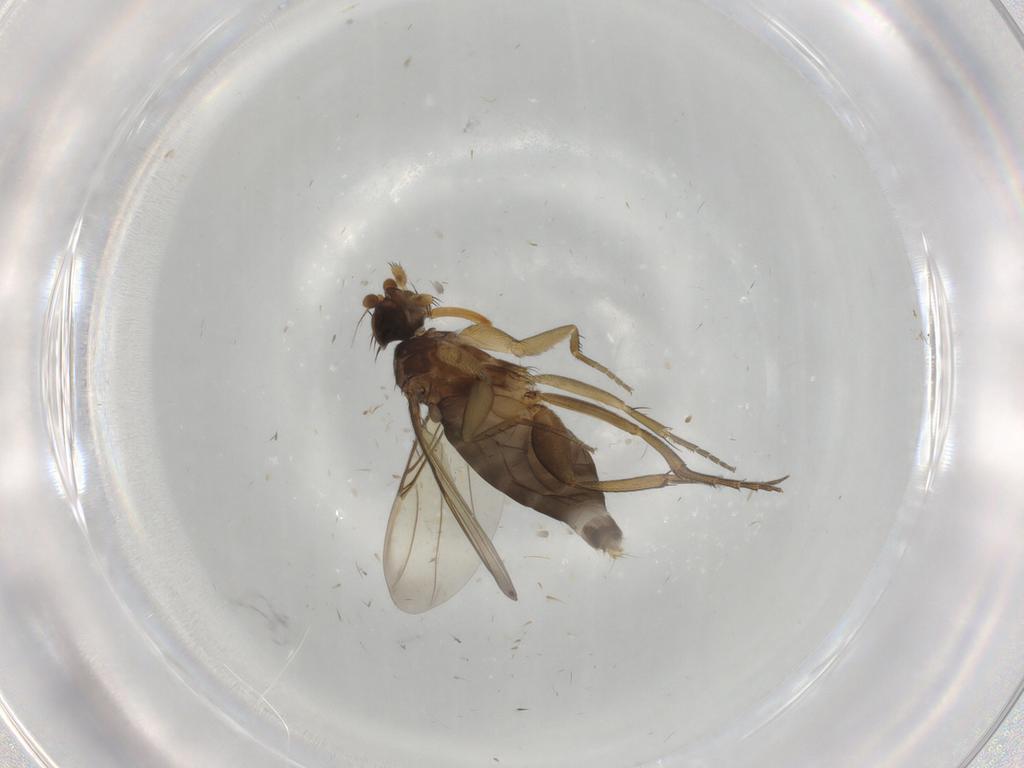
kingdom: Animalia
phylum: Arthropoda
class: Insecta
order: Diptera
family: Phoridae
